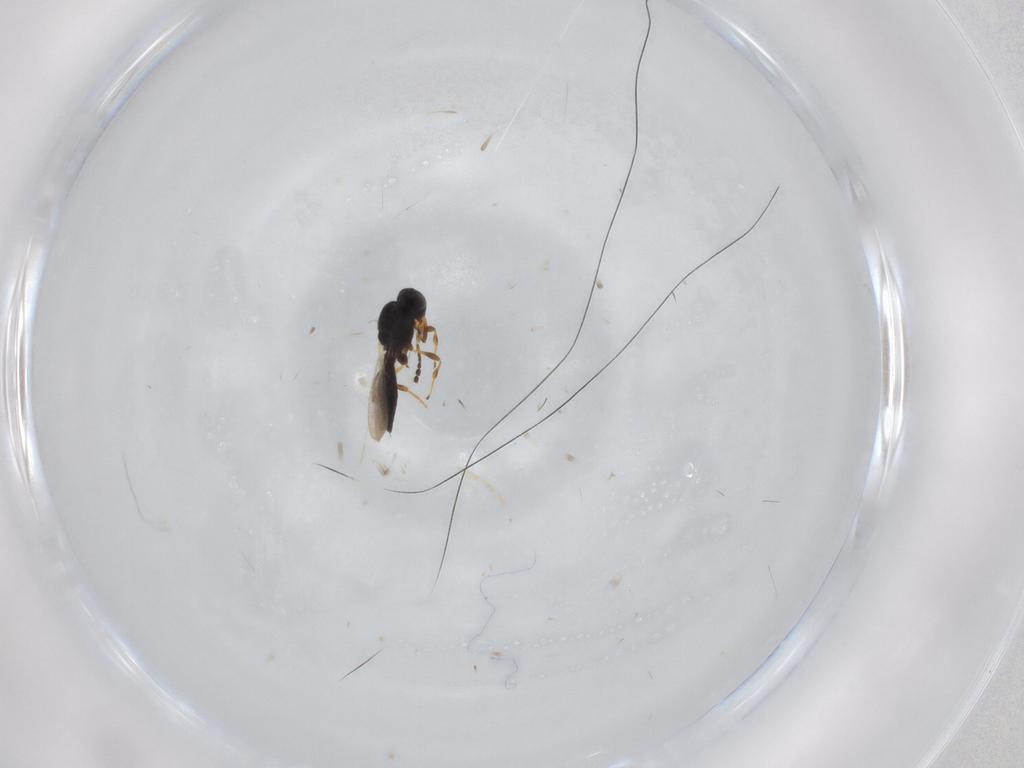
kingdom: Animalia
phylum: Arthropoda
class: Insecta
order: Hymenoptera
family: Platygastridae
